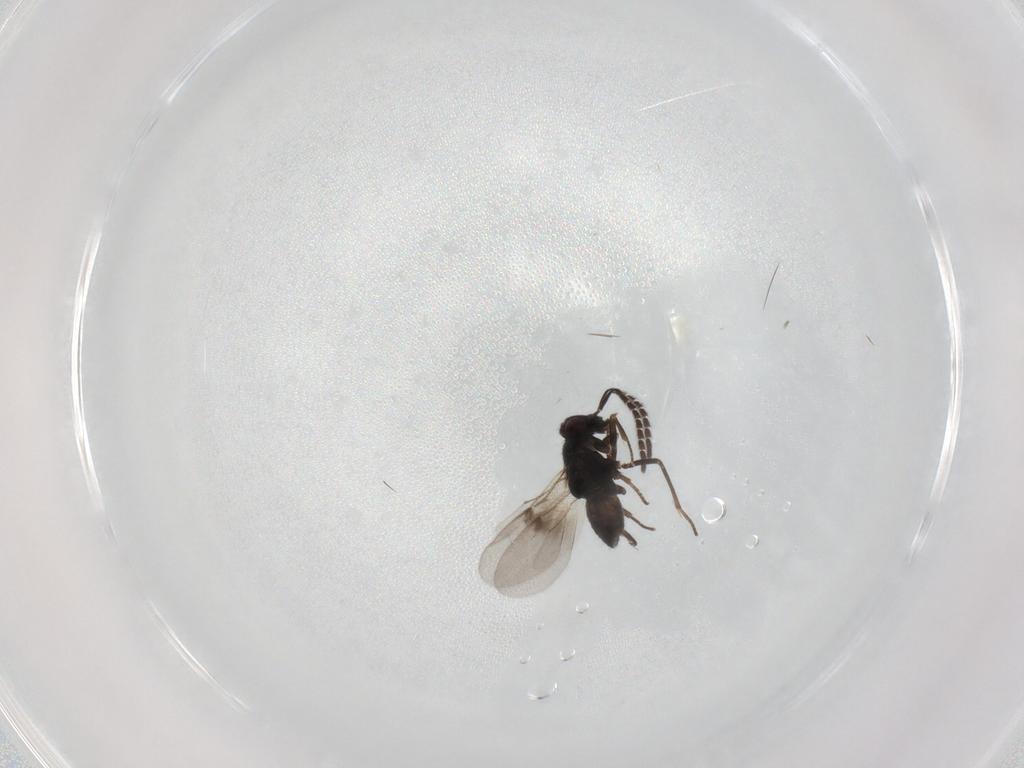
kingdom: Animalia
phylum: Arthropoda
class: Insecta
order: Hymenoptera
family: Encyrtidae
